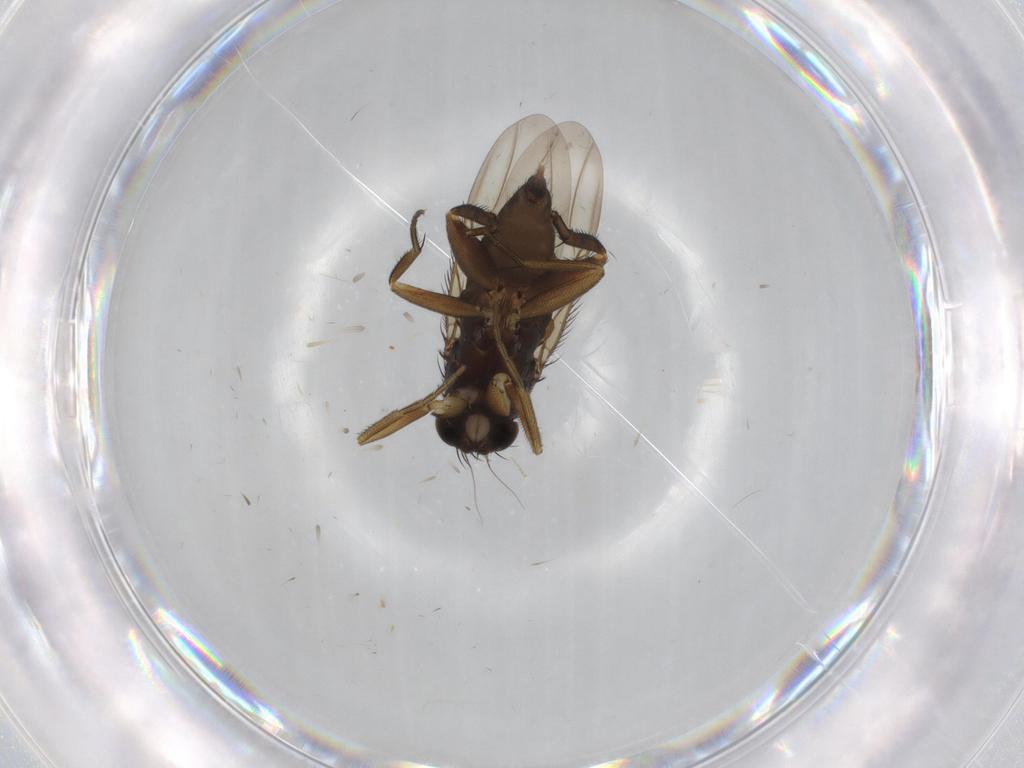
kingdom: Animalia
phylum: Arthropoda
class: Insecta
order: Diptera
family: Phoridae
